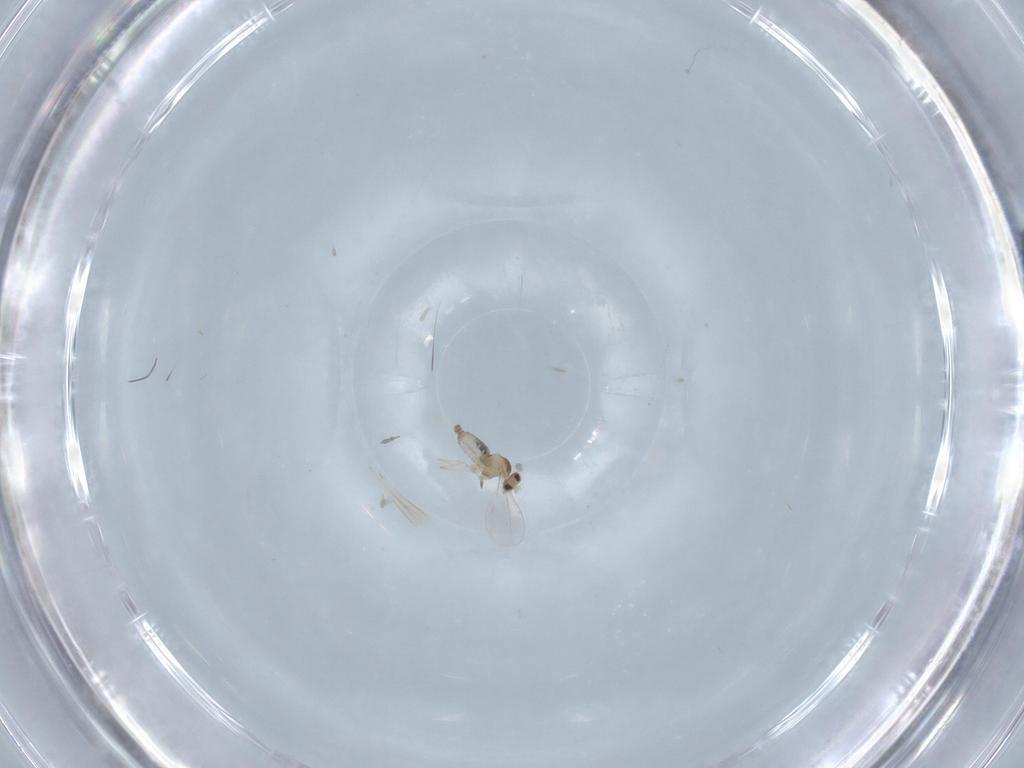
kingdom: Animalia
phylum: Arthropoda
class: Insecta
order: Diptera
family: Cecidomyiidae
